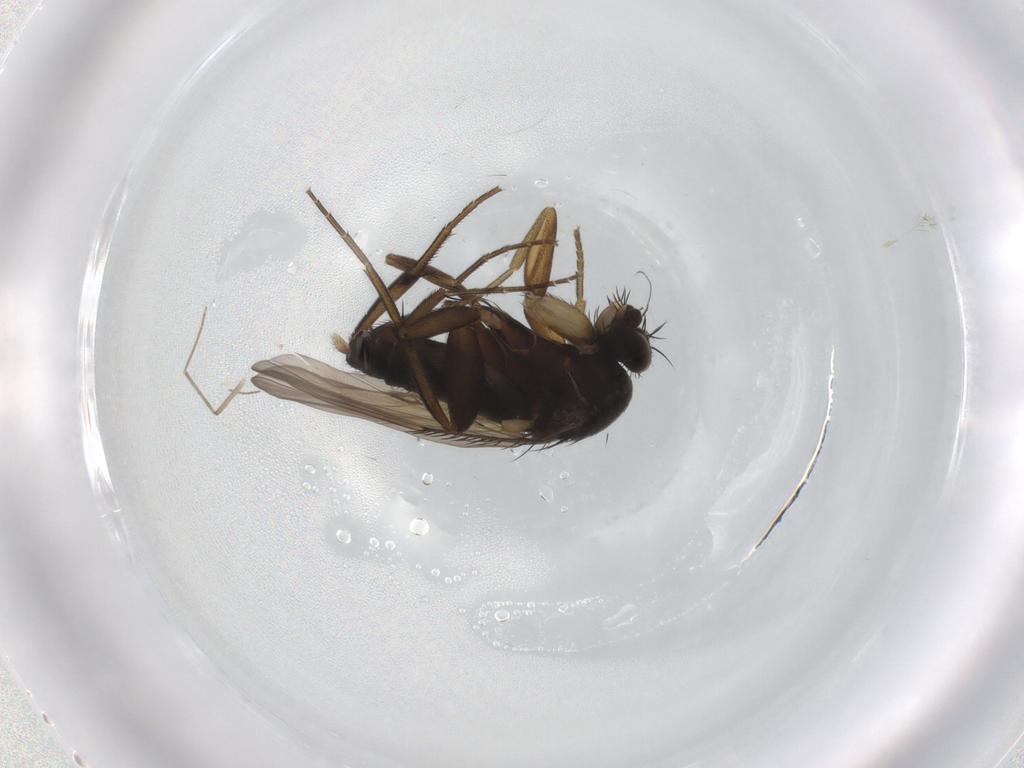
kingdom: Animalia
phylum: Arthropoda
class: Insecta
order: Diptera
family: Phoridae
